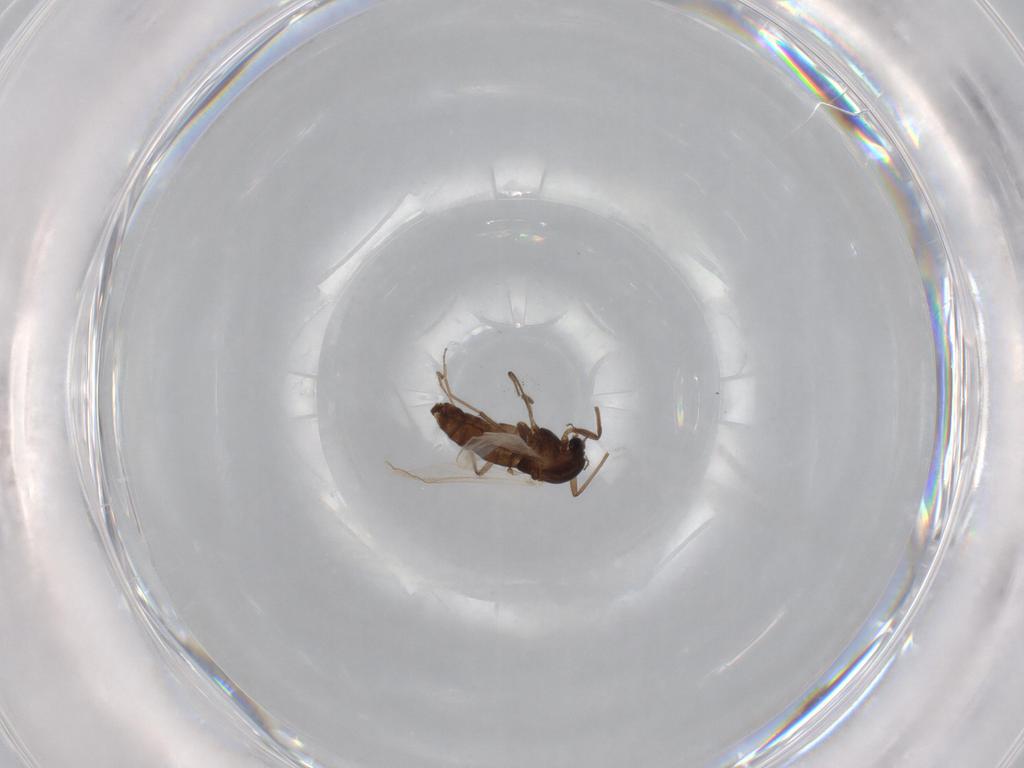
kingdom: Animalia
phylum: Arthropoda
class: Insecta
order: Diptera
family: Chironomidae
